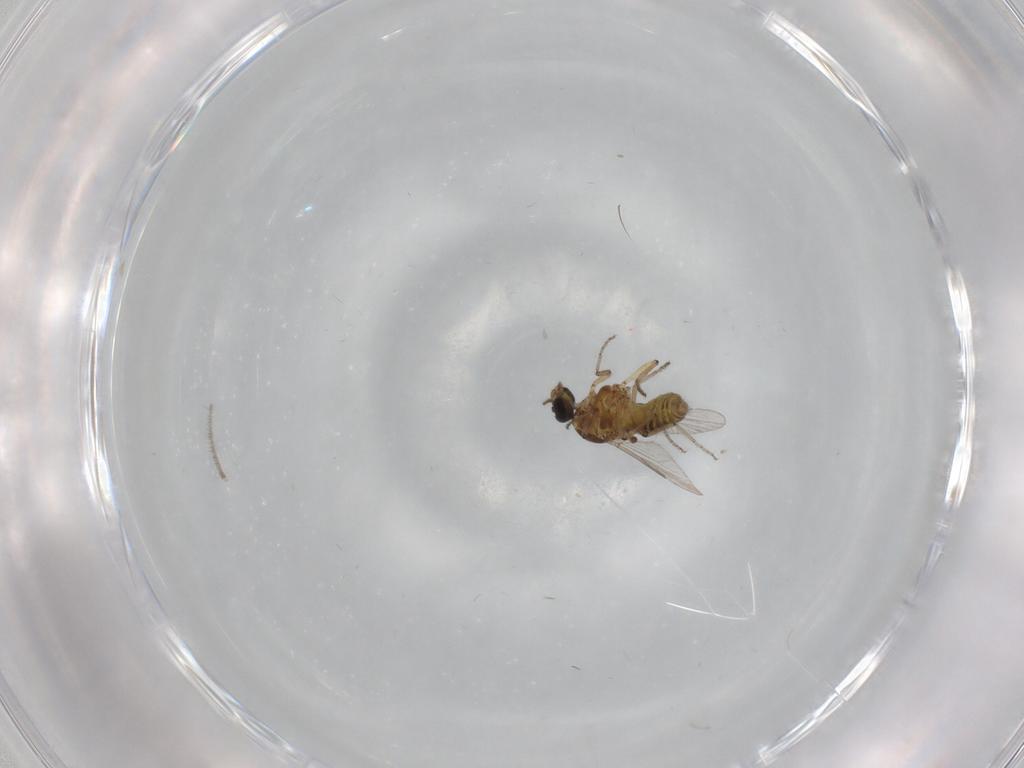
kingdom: Animalia
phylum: Arthropoda
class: Insecta
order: Diptera
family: Ceratopogonidae
